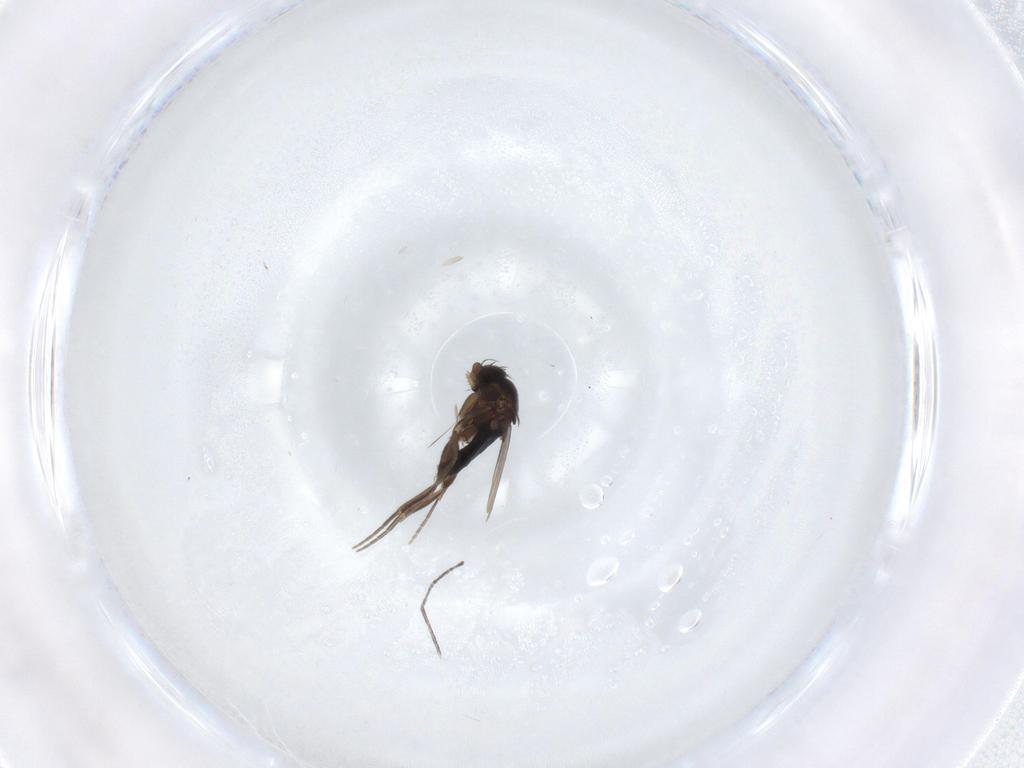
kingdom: Animalia
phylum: Arthropoda
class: Insecta
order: Diptera
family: Phoridae
